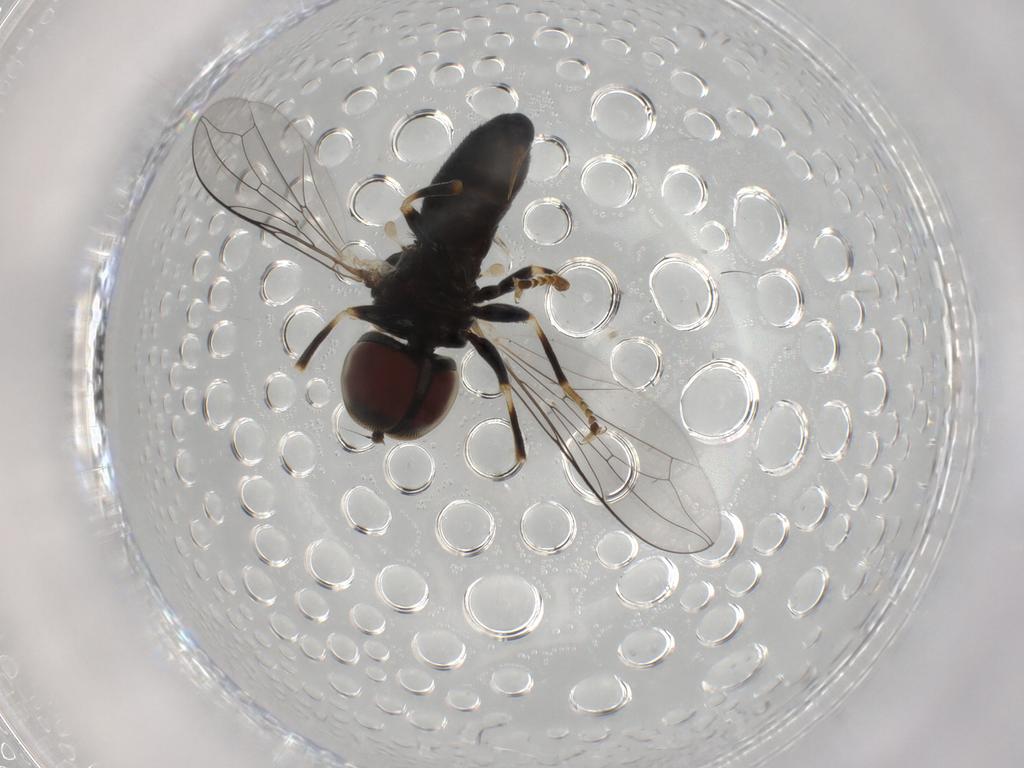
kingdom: Animalia
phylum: Arthropoda
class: Insecta
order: Diptera
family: Pipunculidae
